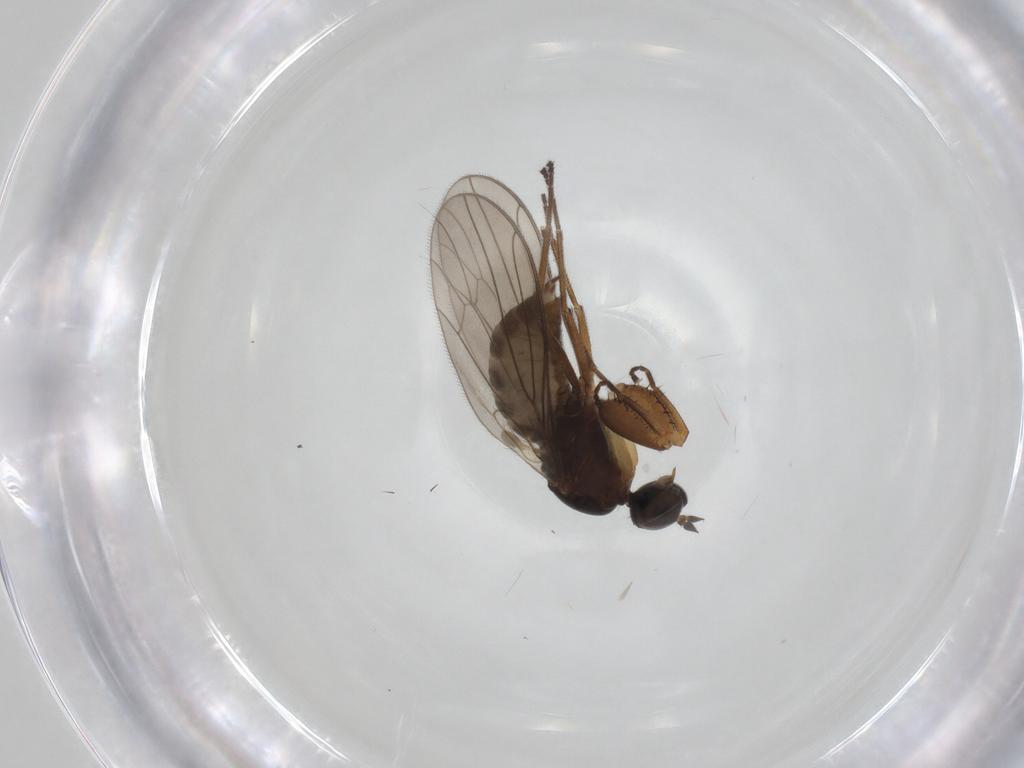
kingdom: Animalia
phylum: Arthropoda
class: Insecta
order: Diptera
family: Empididae
